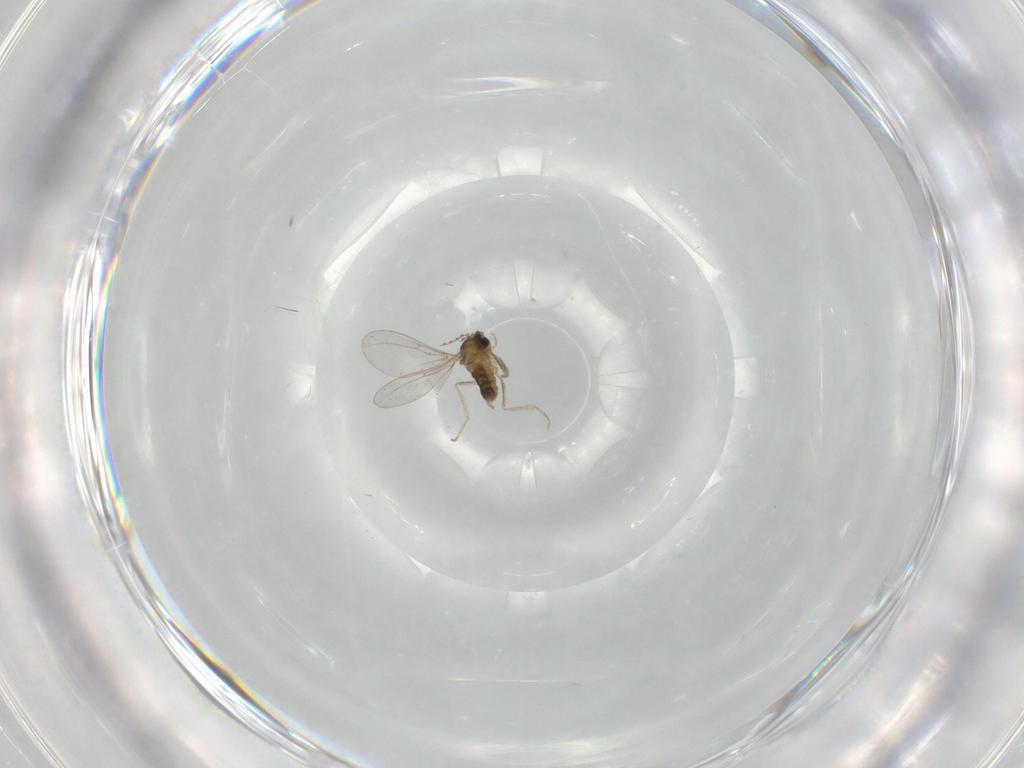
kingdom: Animalia
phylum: Arthropoda
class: Insecta
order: Diptera
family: Cecidomyiidae
